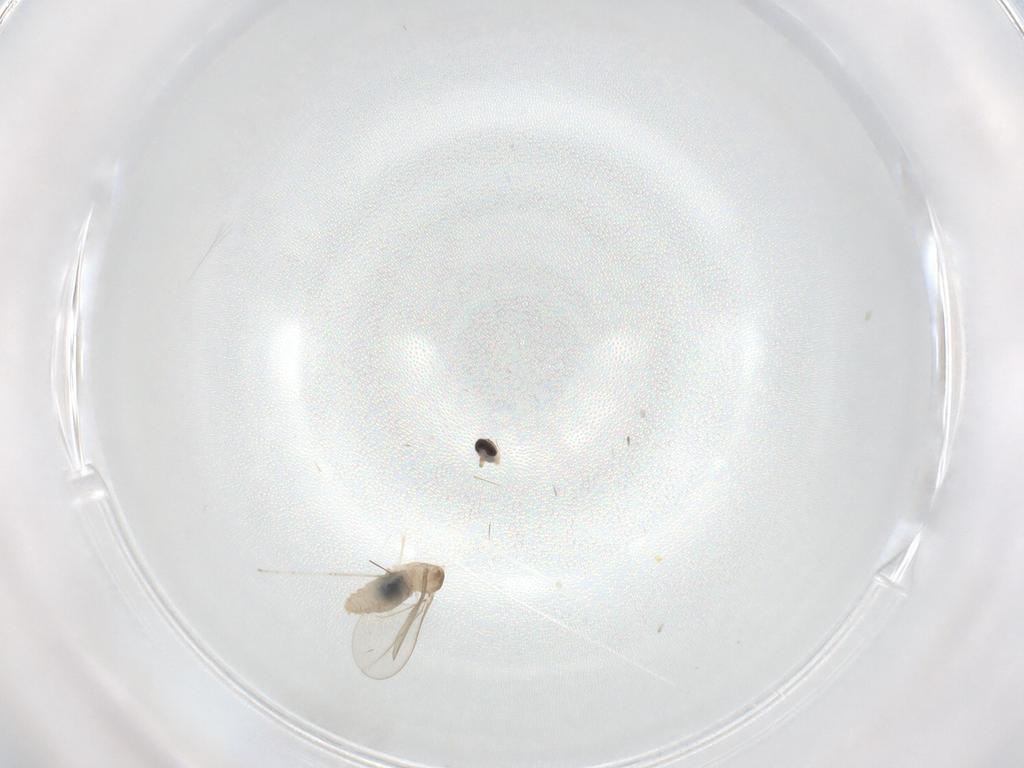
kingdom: Animalia
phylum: Arthropoda
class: Insecta
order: Diptera
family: Cecidomyiidae
